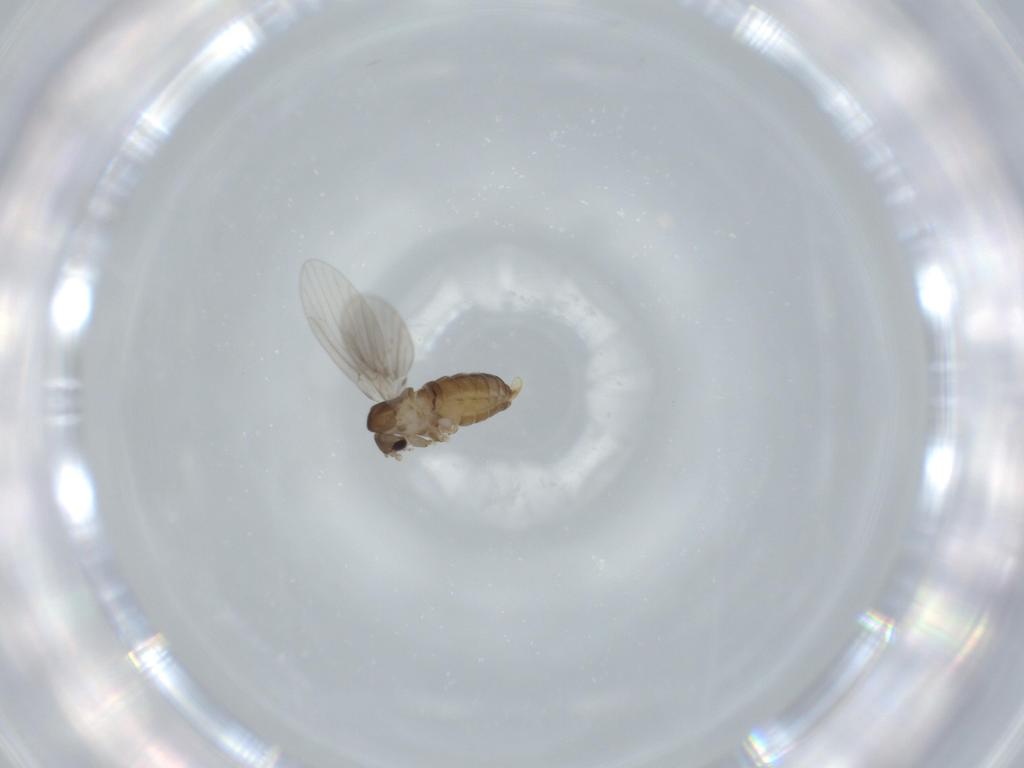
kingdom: Animalia
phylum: Arthropoda
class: Insecta
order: Diptera
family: Psychodidae
